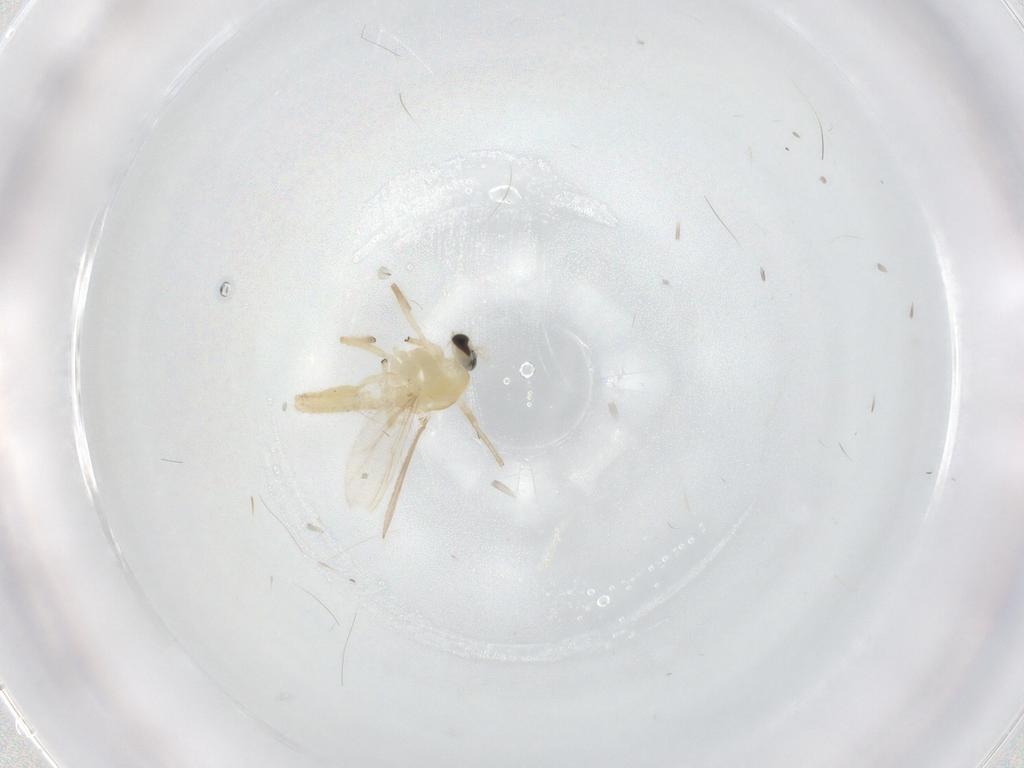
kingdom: Animalia
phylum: Arthropoda
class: Insecta
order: Diptera
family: Chironomidae
